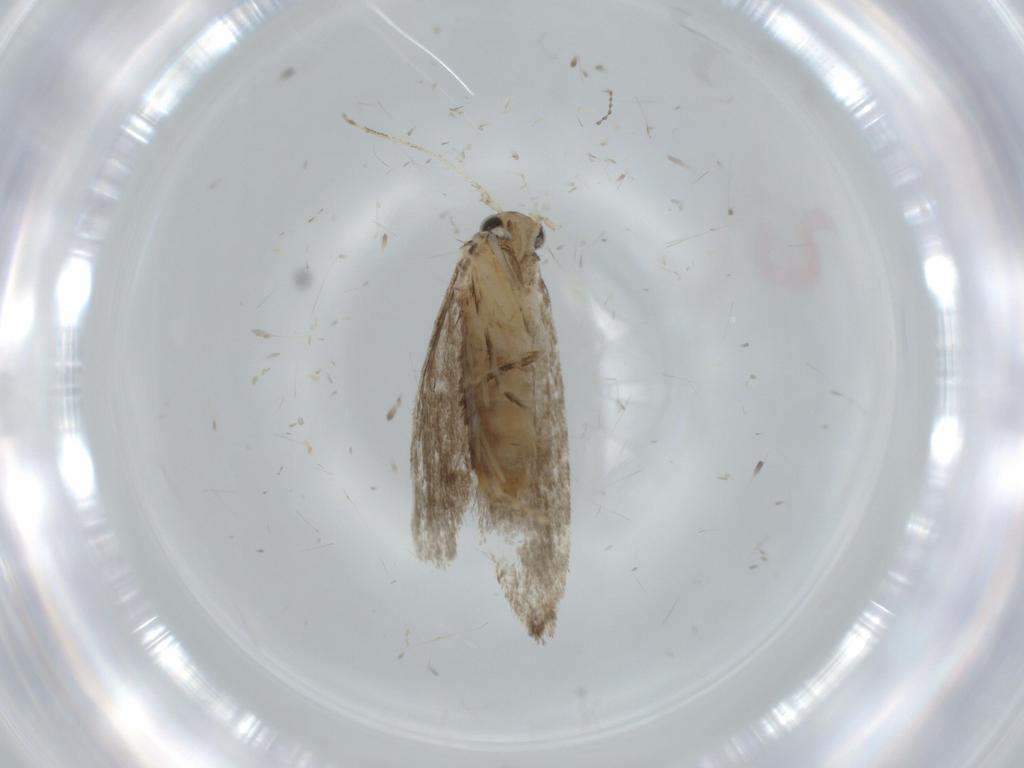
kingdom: Animalia
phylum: Arthropoda
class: Insecta
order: Lepidoptera
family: Tineidae
